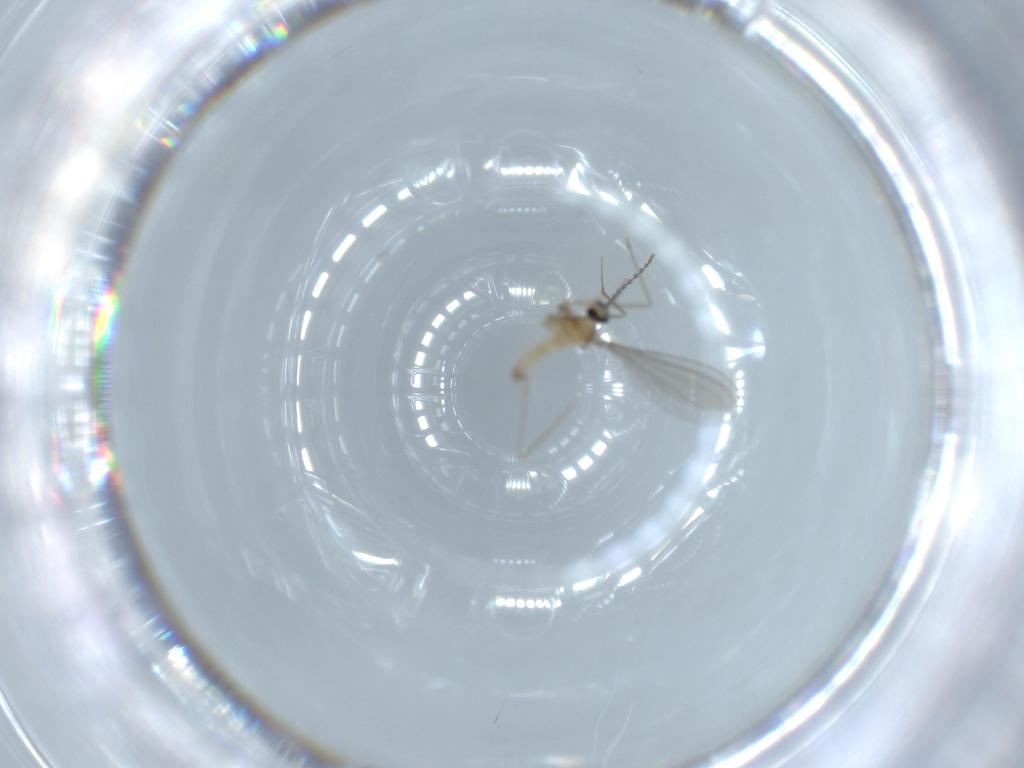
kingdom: Animalia
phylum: Arthropoda
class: Insecta
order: Diptera
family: Cecidomyiidae
